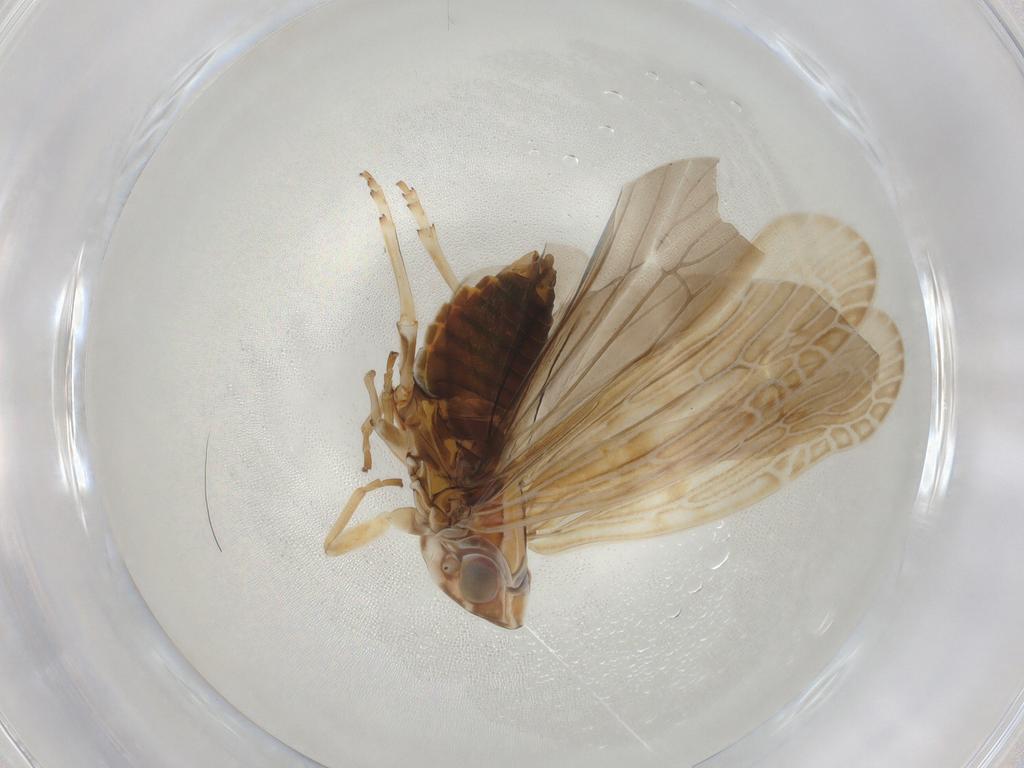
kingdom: Animalia
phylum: Arthropoda
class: Insecta
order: Hemiptera
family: Achilidae
